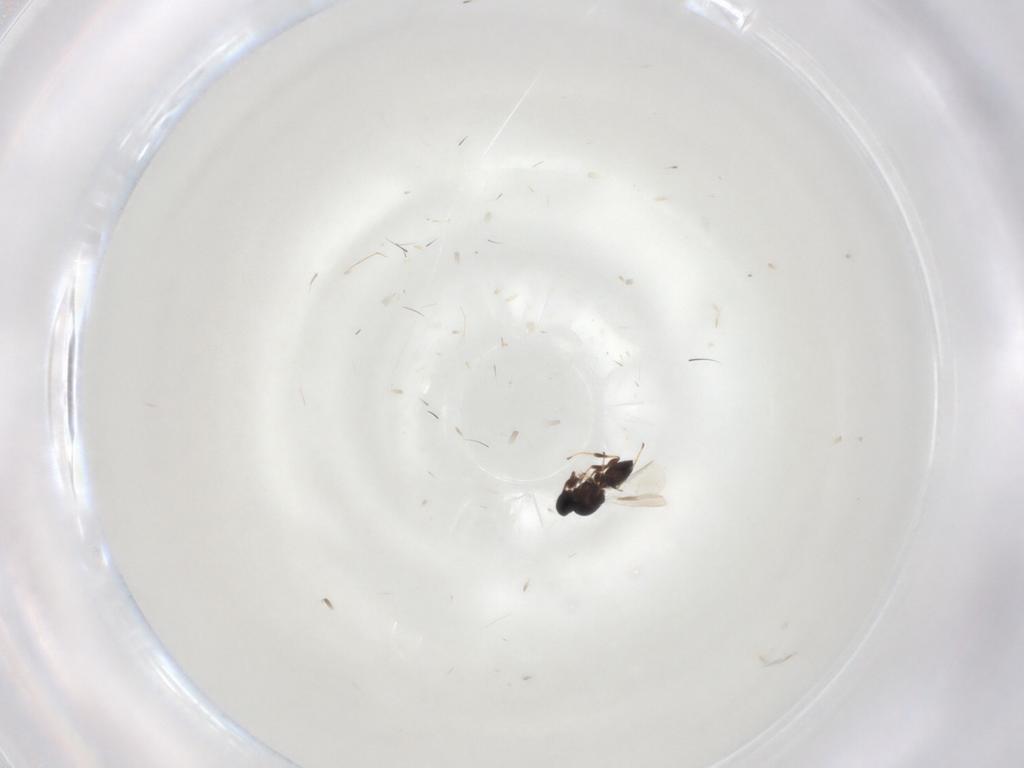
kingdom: Animalia
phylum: Arthropoda
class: Insecta
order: Hymenoptera
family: Platygastridae
